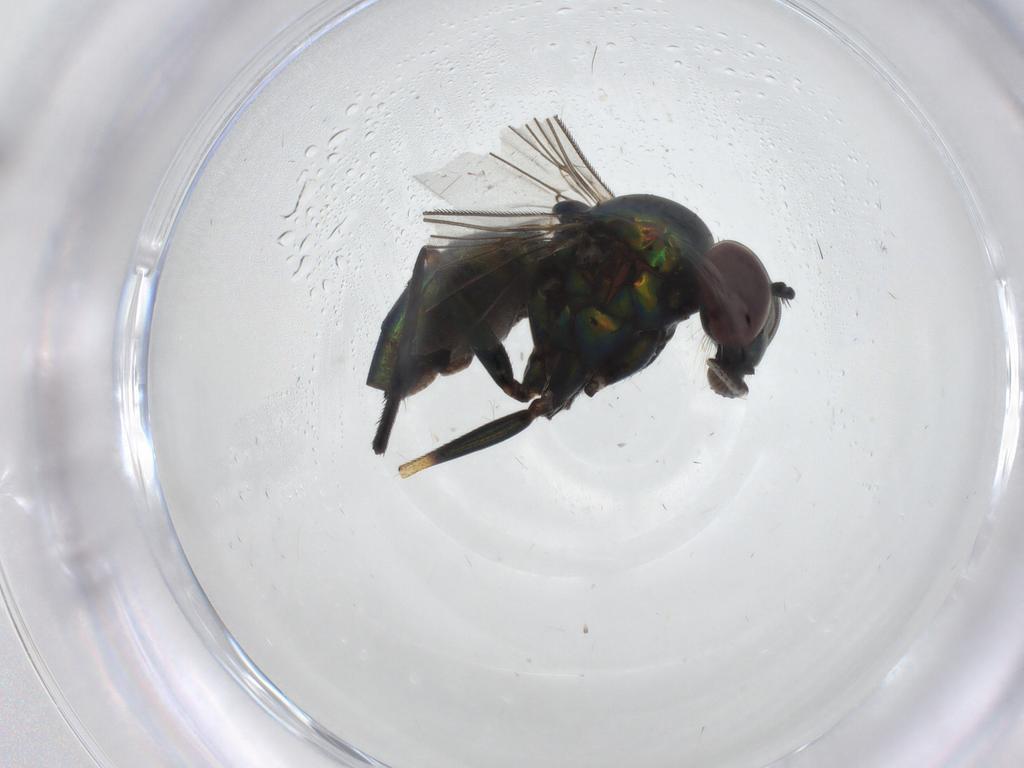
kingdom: Animalia
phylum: Arthropoda
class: Insecta
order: Diptera
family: Dolichopodidae
